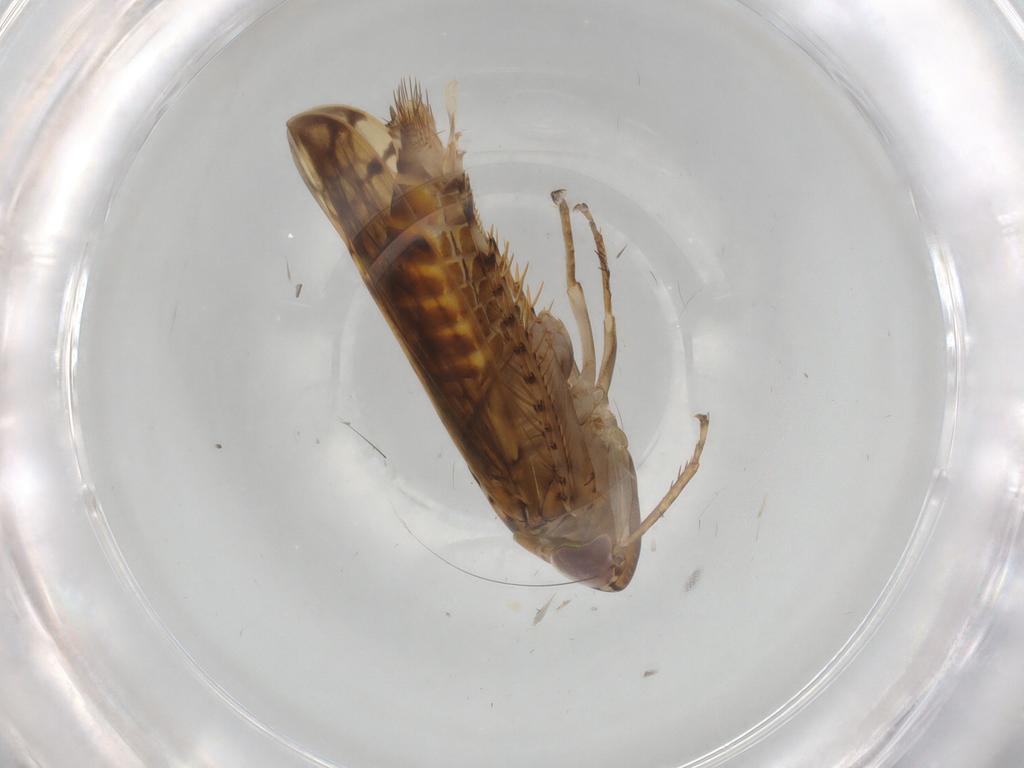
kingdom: Animalia
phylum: Arthropoda
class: Insecta
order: Hemiptera
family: Cicadellidae
